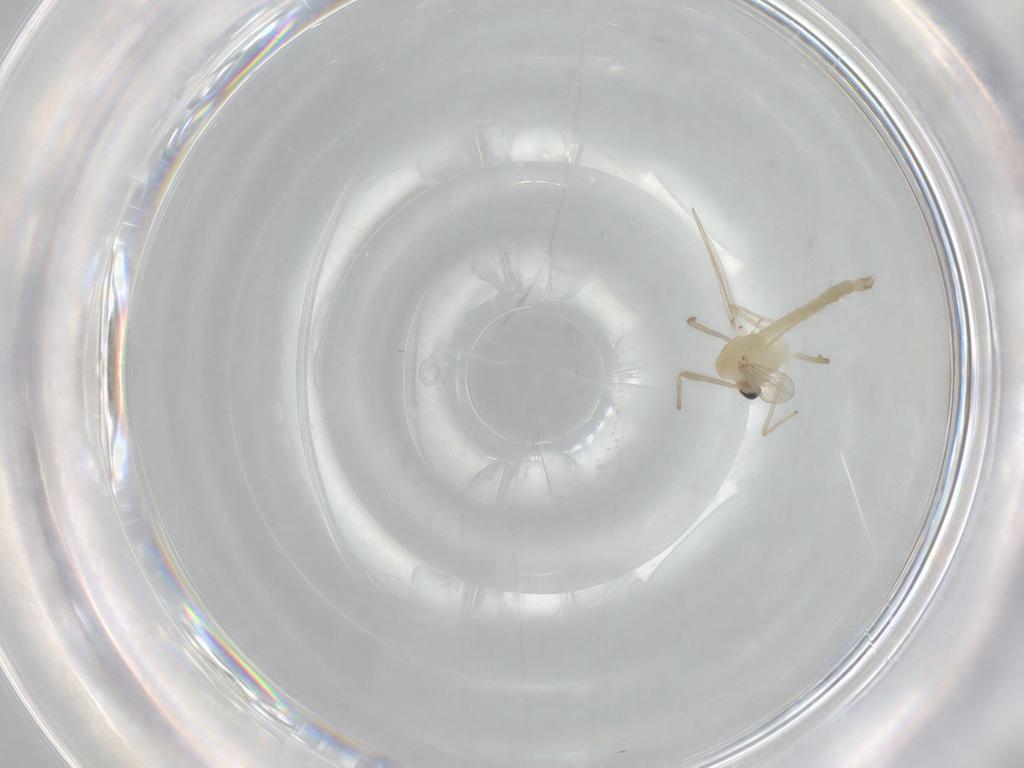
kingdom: Animalia
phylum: Arthropoda
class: Insecta
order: Diptera
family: Chironomidae
